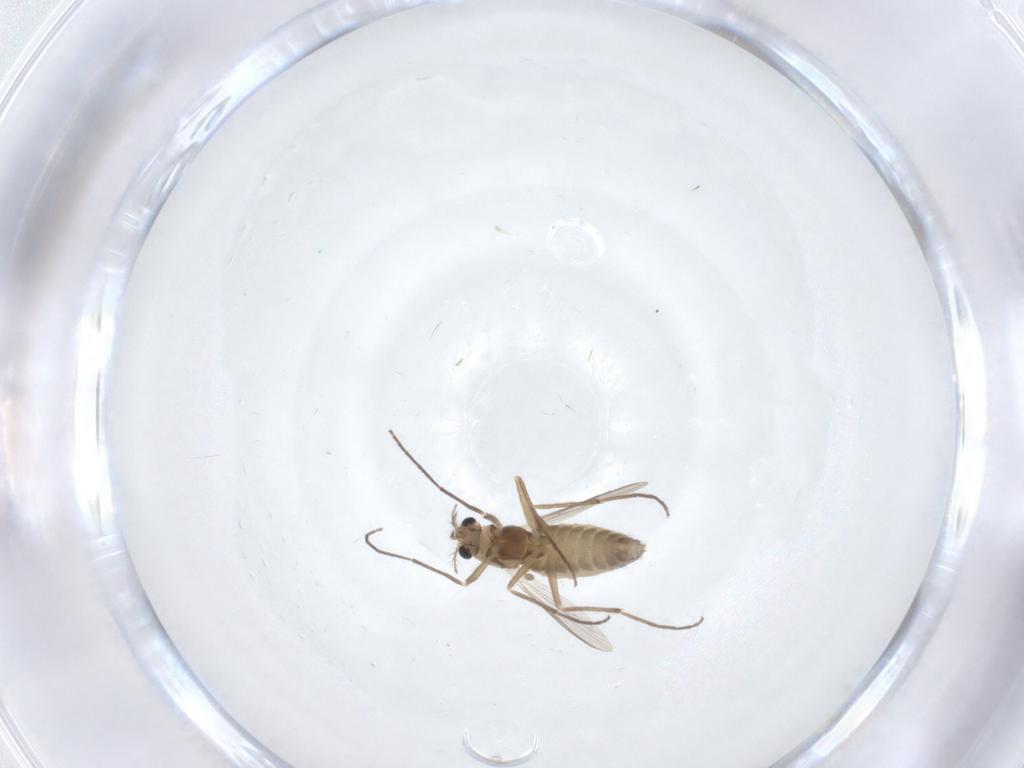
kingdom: Animalia
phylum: Arthropoda
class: Insecta
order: Diptera
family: Chironomidae
